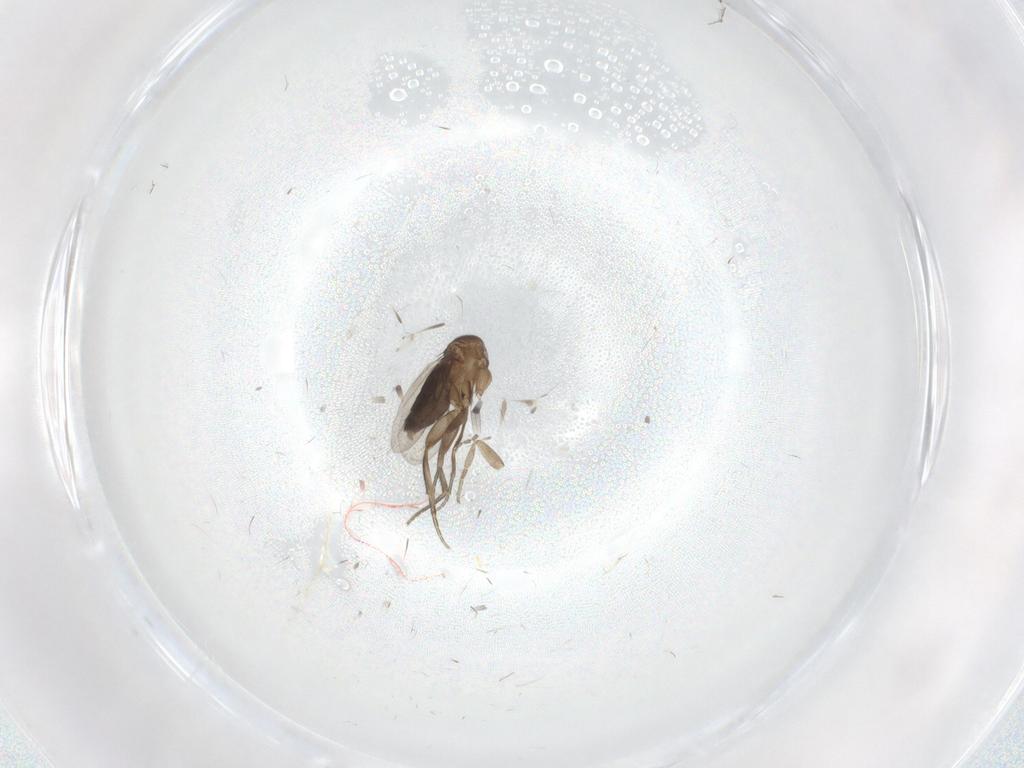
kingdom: Animalia
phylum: Arthropoda
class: Insecta
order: Diptera
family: Phoridae
